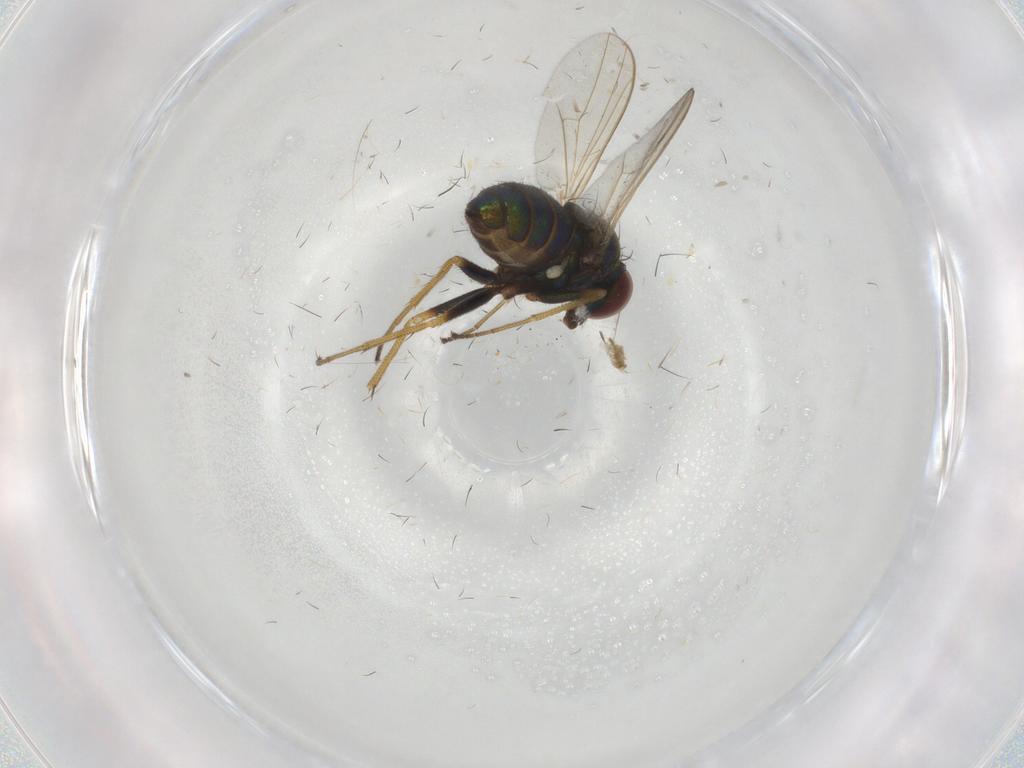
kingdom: Animalia
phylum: Arthropoda
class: Insecta
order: Diptera
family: Dolichopodidae
